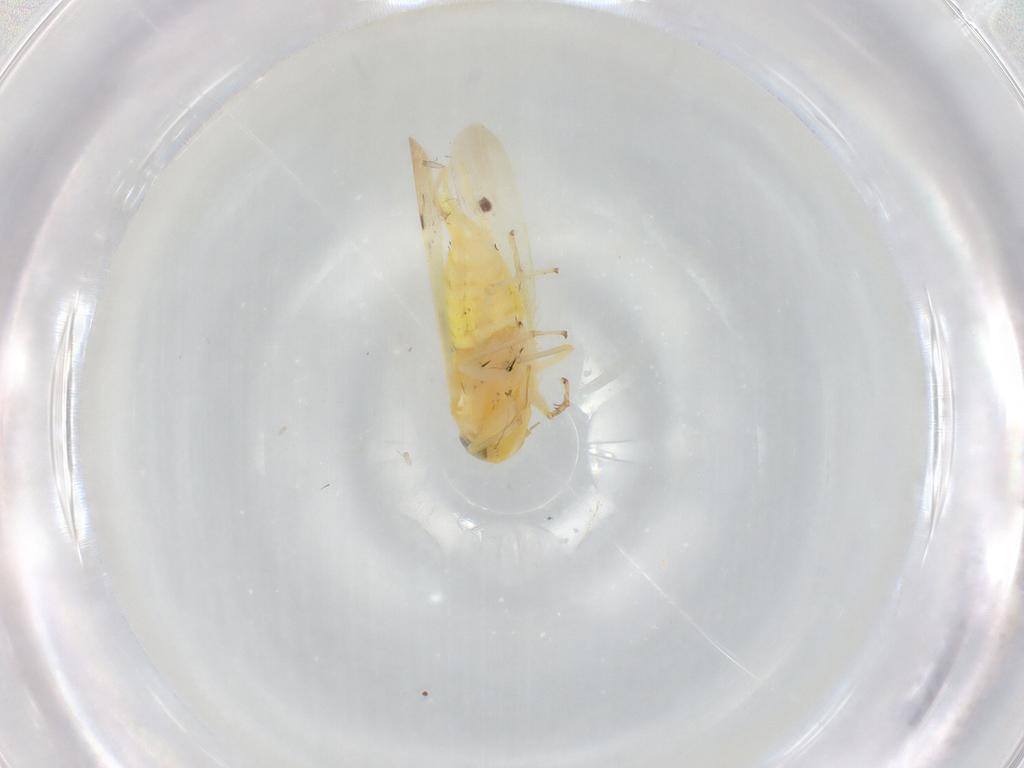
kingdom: Animalia
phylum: Arthropoda
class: Insecta
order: Hemiptera
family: Cicadellidae
